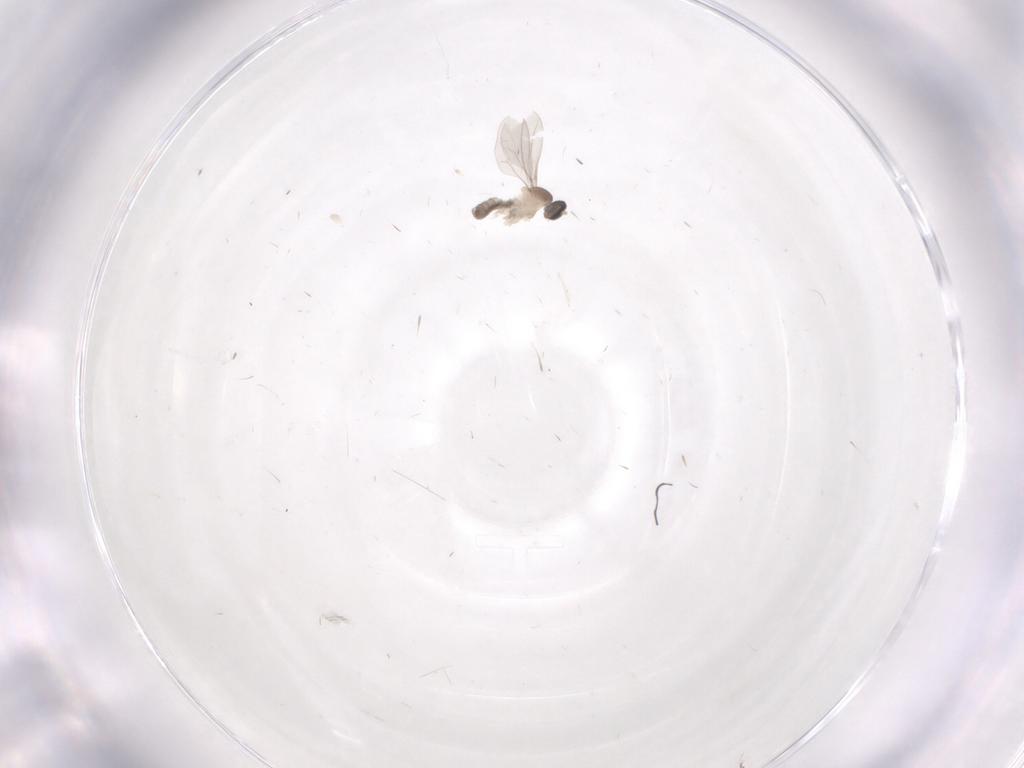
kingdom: Animalia
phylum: Arthropoda
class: Insecta
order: Diptera
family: Cecidomyiidae
